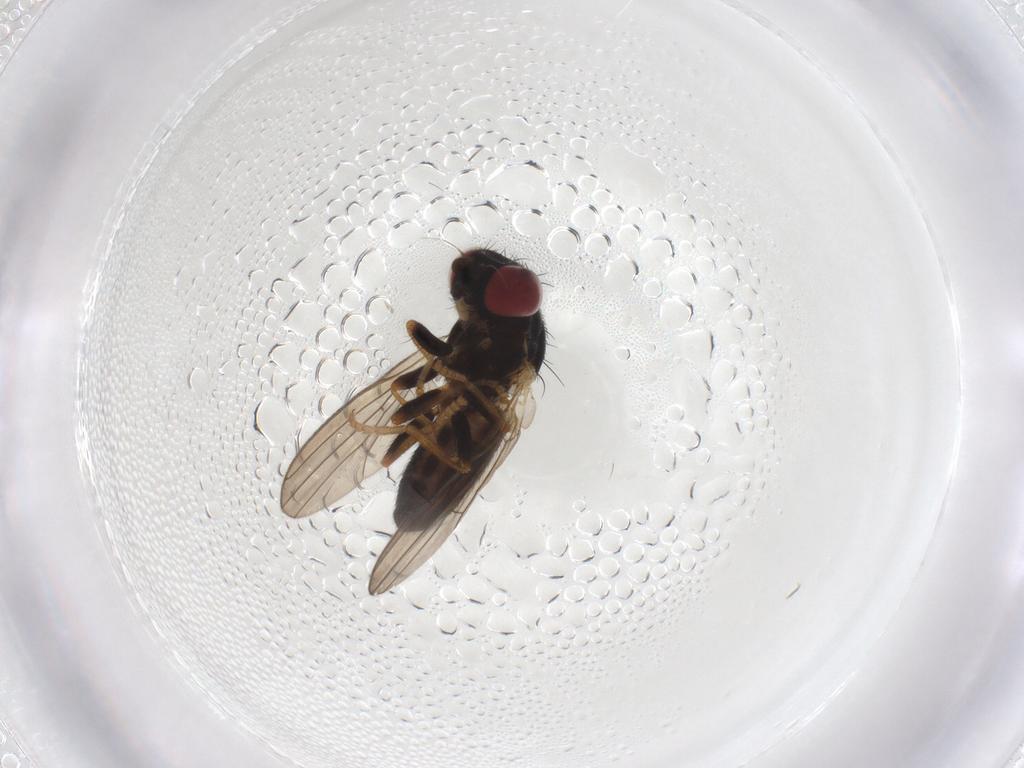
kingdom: Animalia
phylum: Arthropoda
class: Insecta
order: Diptera
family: Chamaemyiidae
